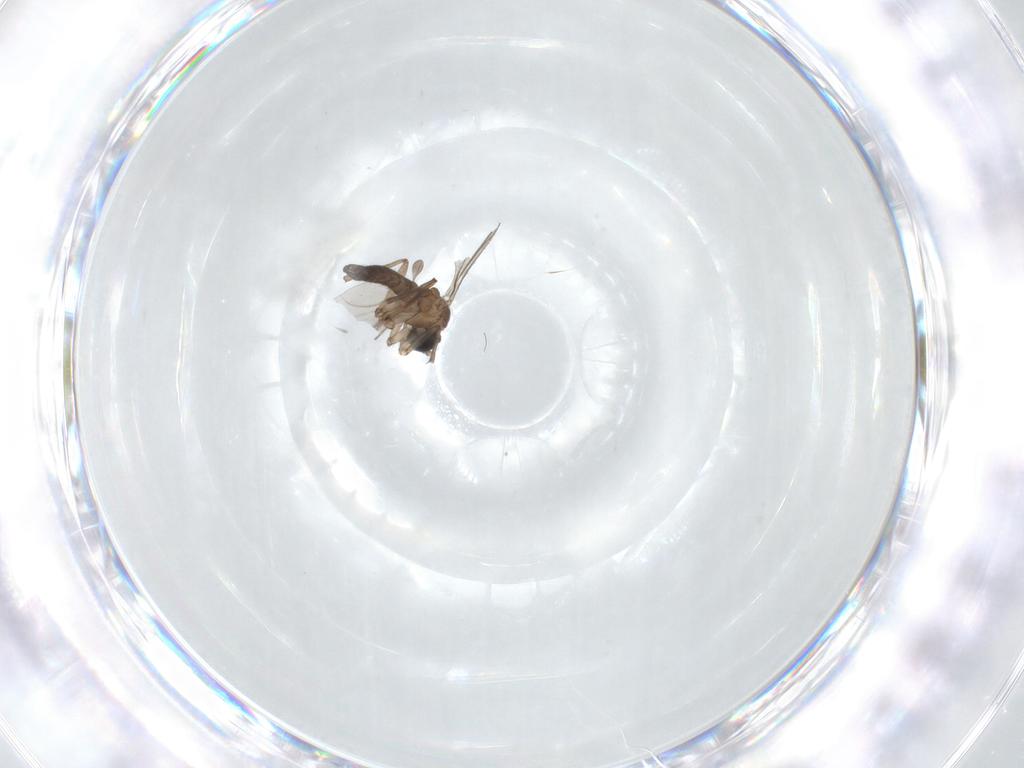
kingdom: Animalia
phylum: Arthropoda
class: Insecta
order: Diptera
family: Sciaridae
